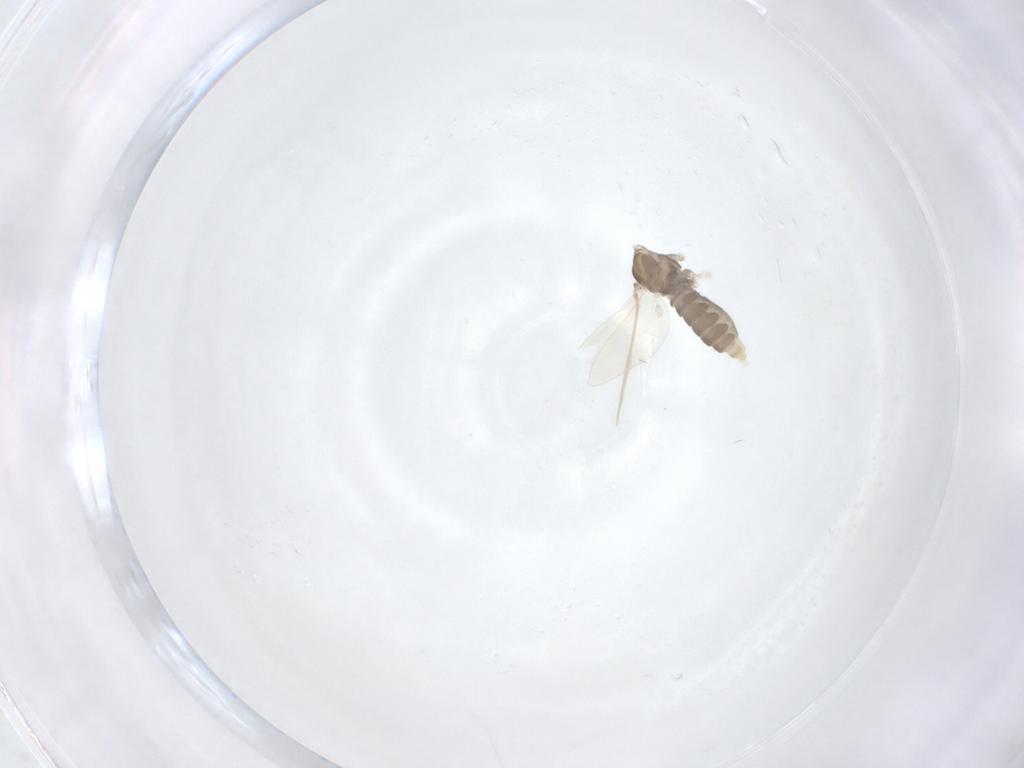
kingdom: Animalia
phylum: Arthropoda
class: Insecta
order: Diptera
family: Cecidomyiidae
